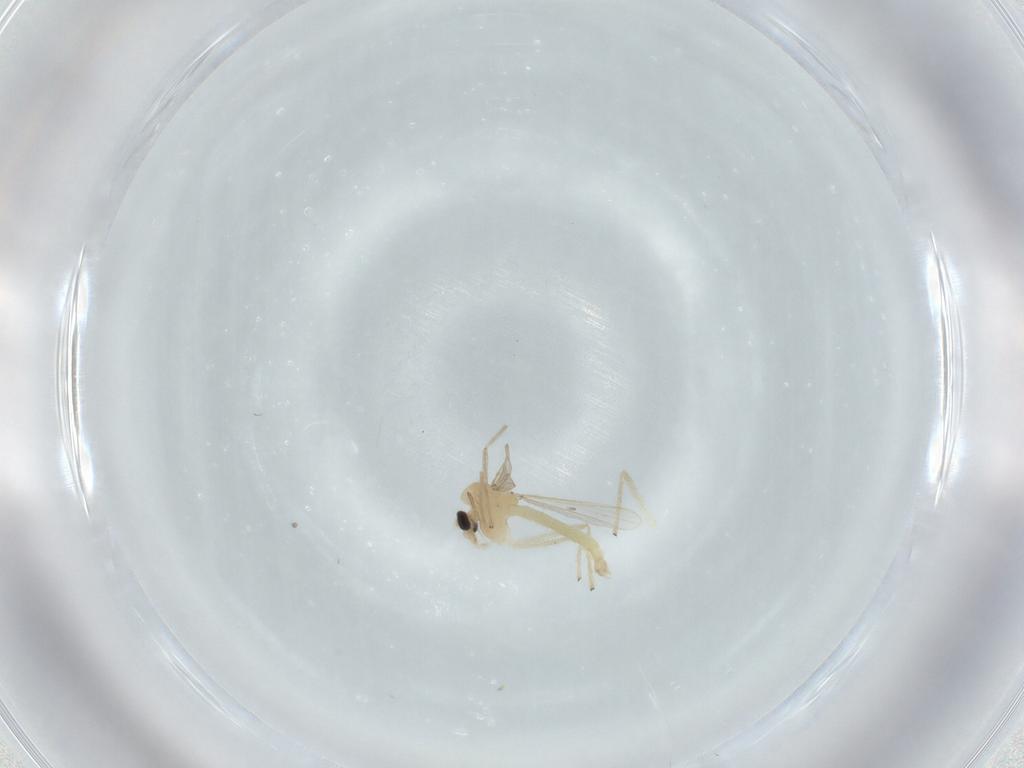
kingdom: Animalia
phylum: Arthropoda
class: Insecta
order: Diptera
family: Chironomidae
